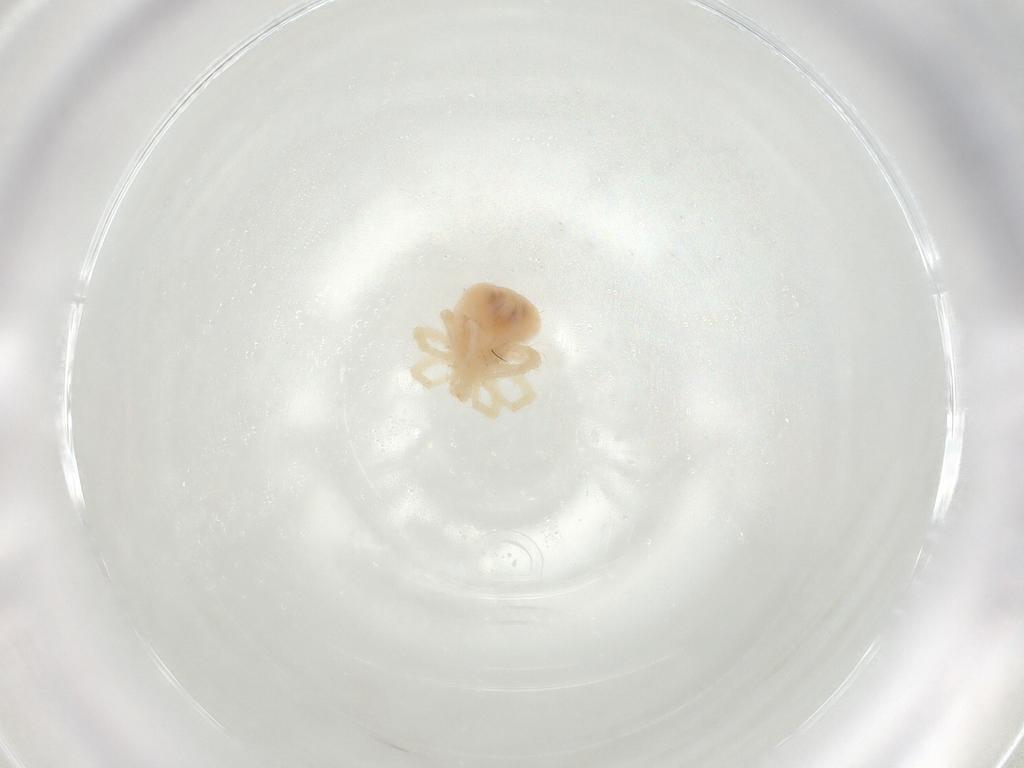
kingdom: Animalia
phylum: Arthropoda
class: Arachnida
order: Trombidiformes
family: Anystidae
